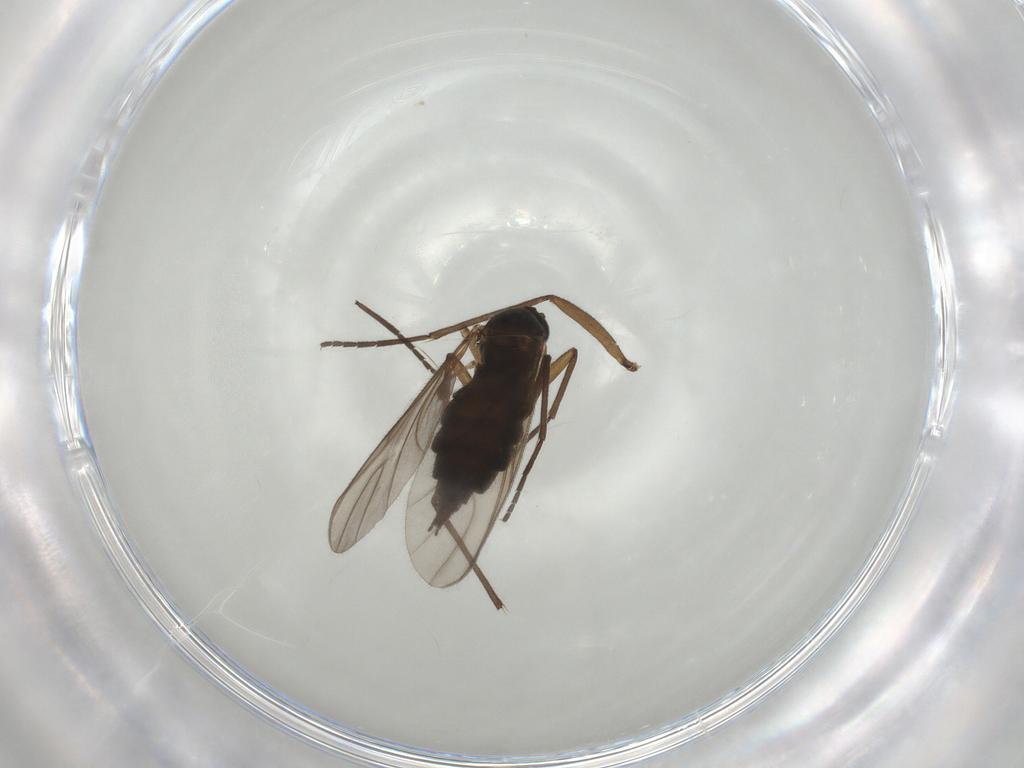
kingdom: Animalia
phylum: Arthropoda
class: Insecta
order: Diptera
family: Sciaridae
